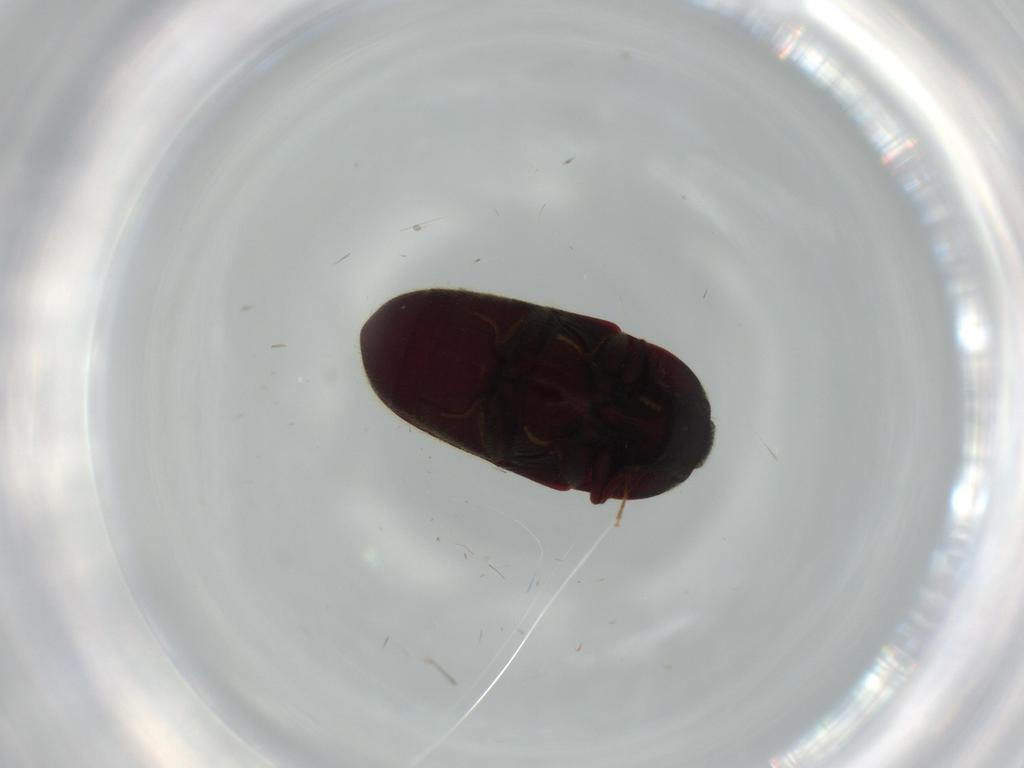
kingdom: Animalia
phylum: Arthropoda
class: Insecta
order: Coleoptera
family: Throscidae
